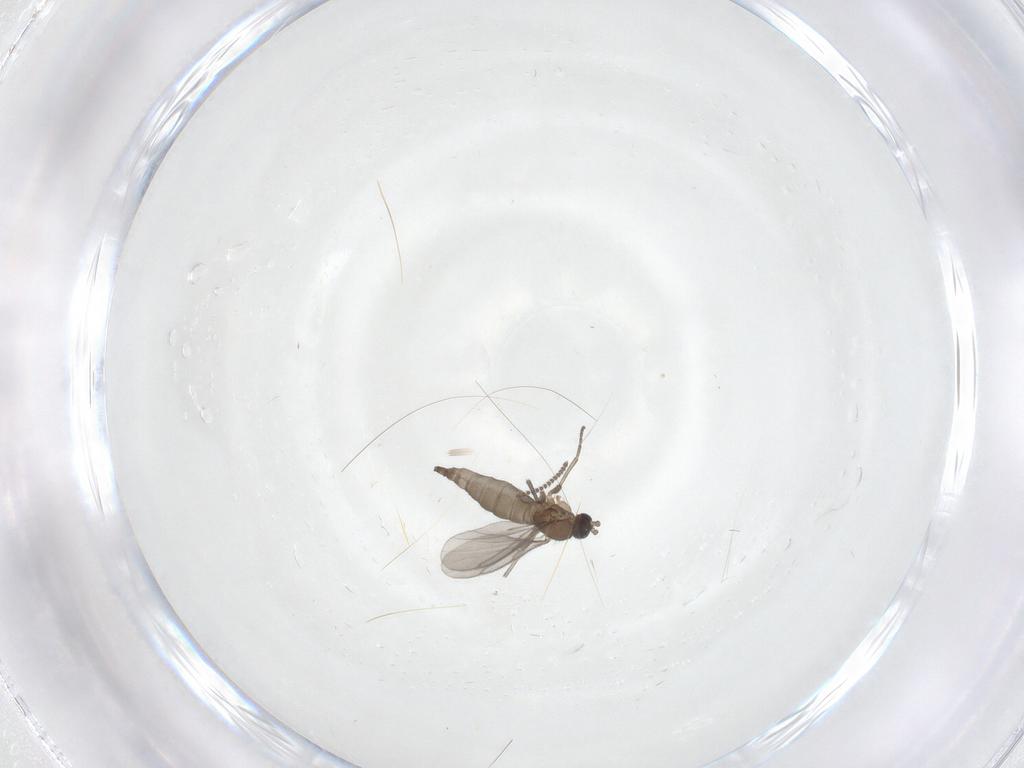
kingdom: Animalia
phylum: Arthropoda
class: Insecta
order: Diptera
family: Sciaridae
